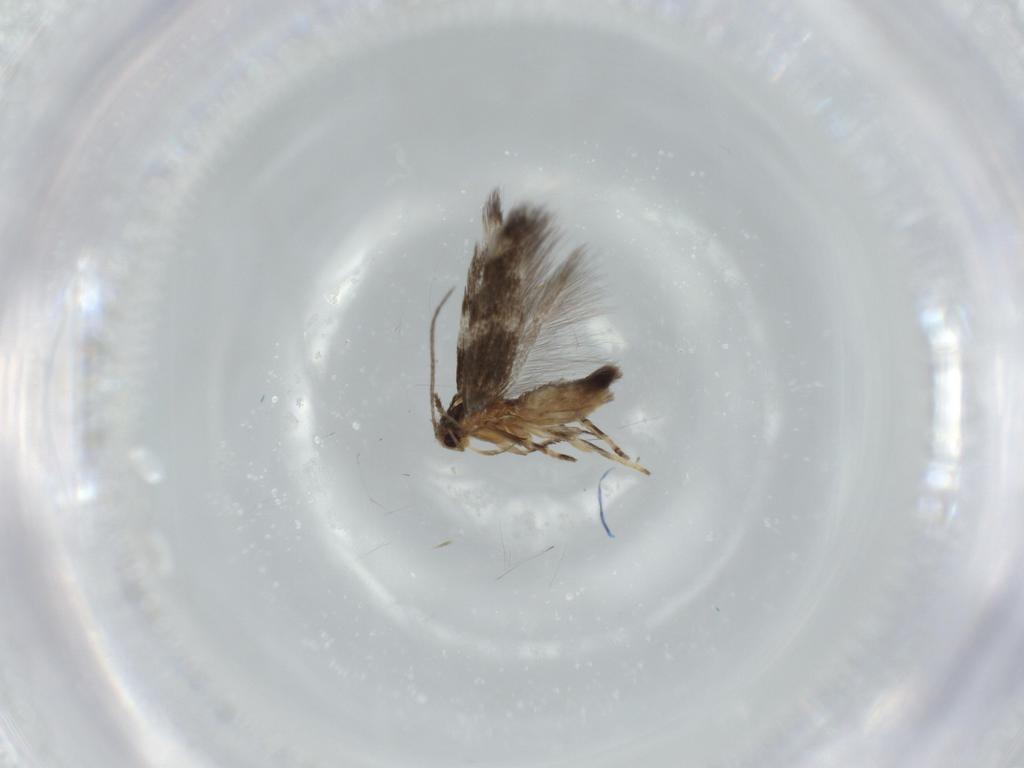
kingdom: Animalia
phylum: Arthropoda
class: Insecta
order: Lepidoptera
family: Cosmopterigidae
